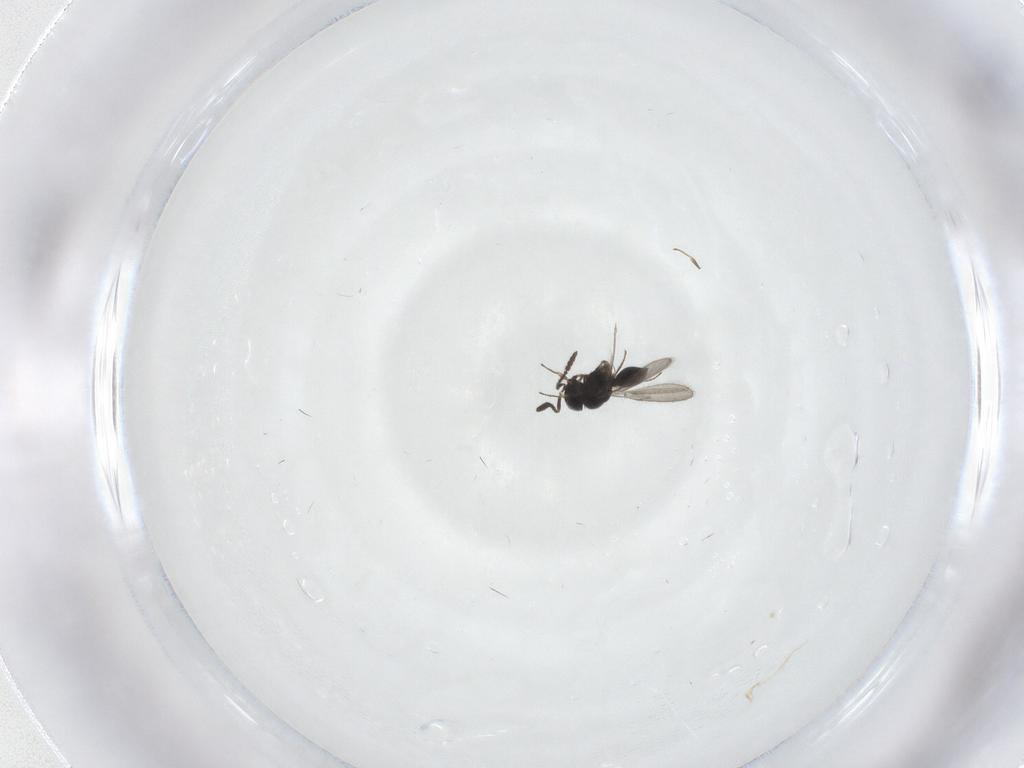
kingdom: Animalia
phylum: Arthropoda
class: Insecta
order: Hymenoptera
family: Scelionidae
